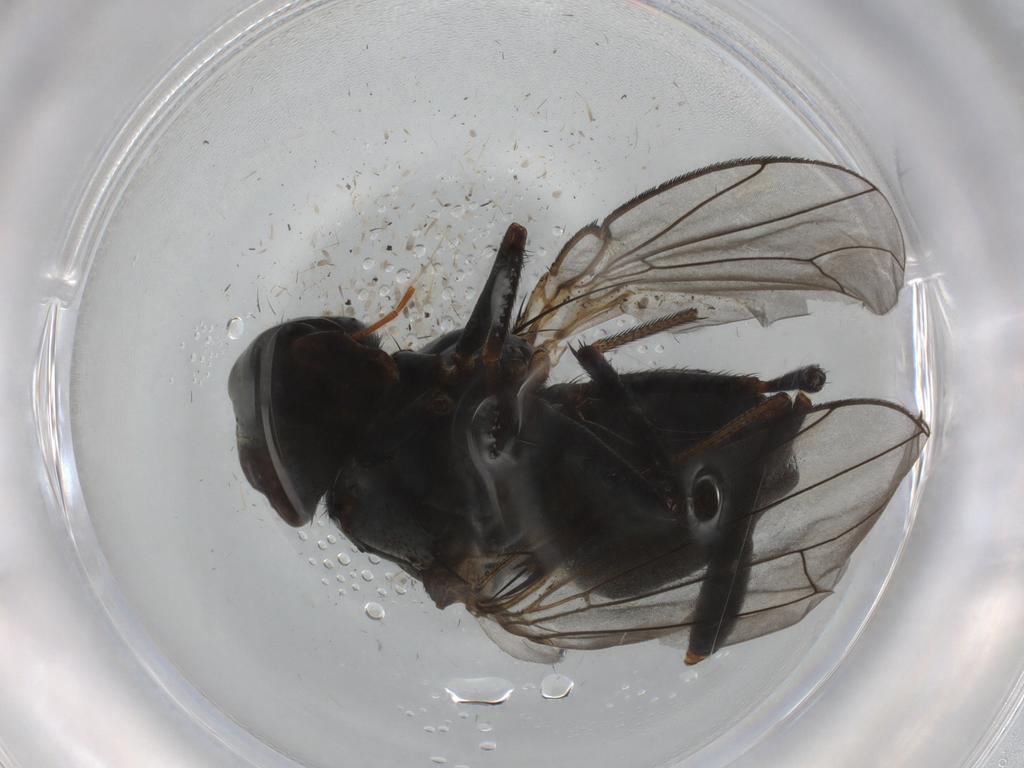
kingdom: Animalia
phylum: Arthropoda
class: Insecta
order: Diptera
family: Ephydridae
